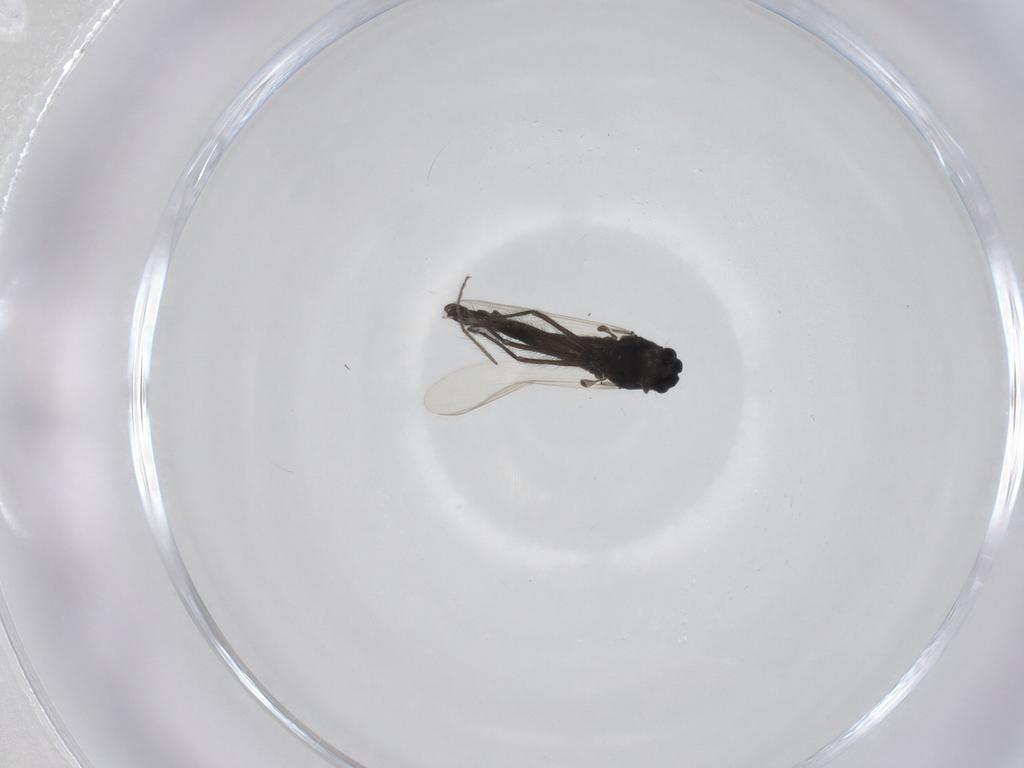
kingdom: Animalia
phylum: Arthropoda
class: Insecta
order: Diptera
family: Chironomidae
